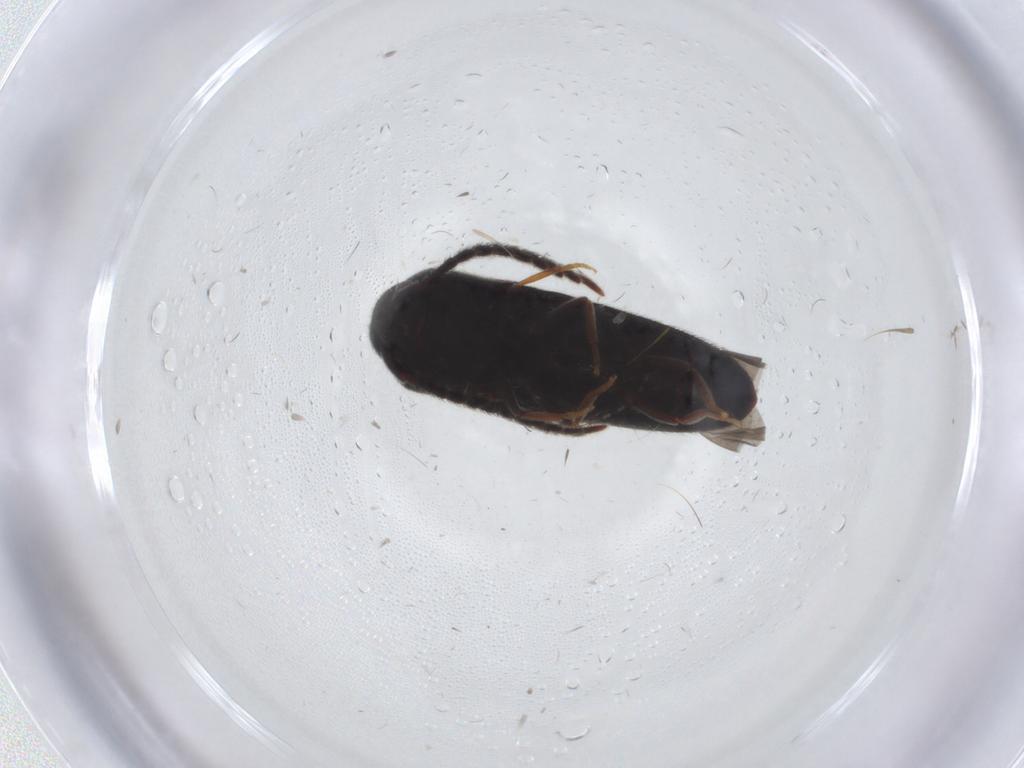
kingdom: Animalia
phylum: Arthropoda
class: Insecta
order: Coleoptera
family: Eucnemidae
